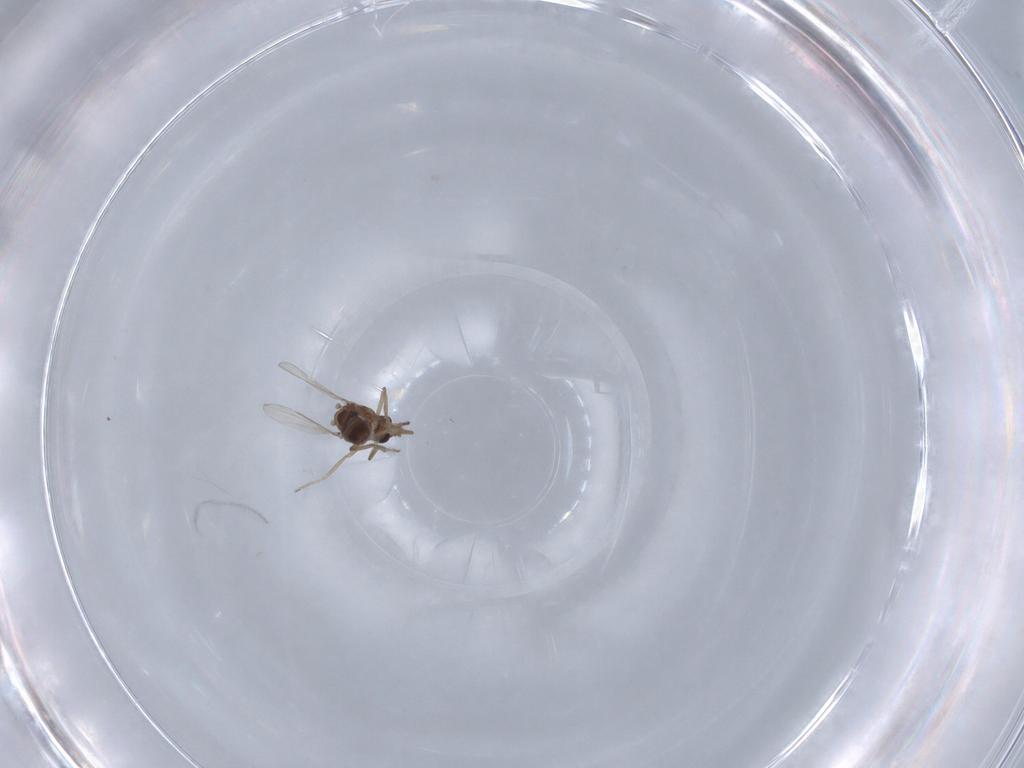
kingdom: Animalia
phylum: Arthropoda
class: Insecta
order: Diptera
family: Ceratopogonidae
